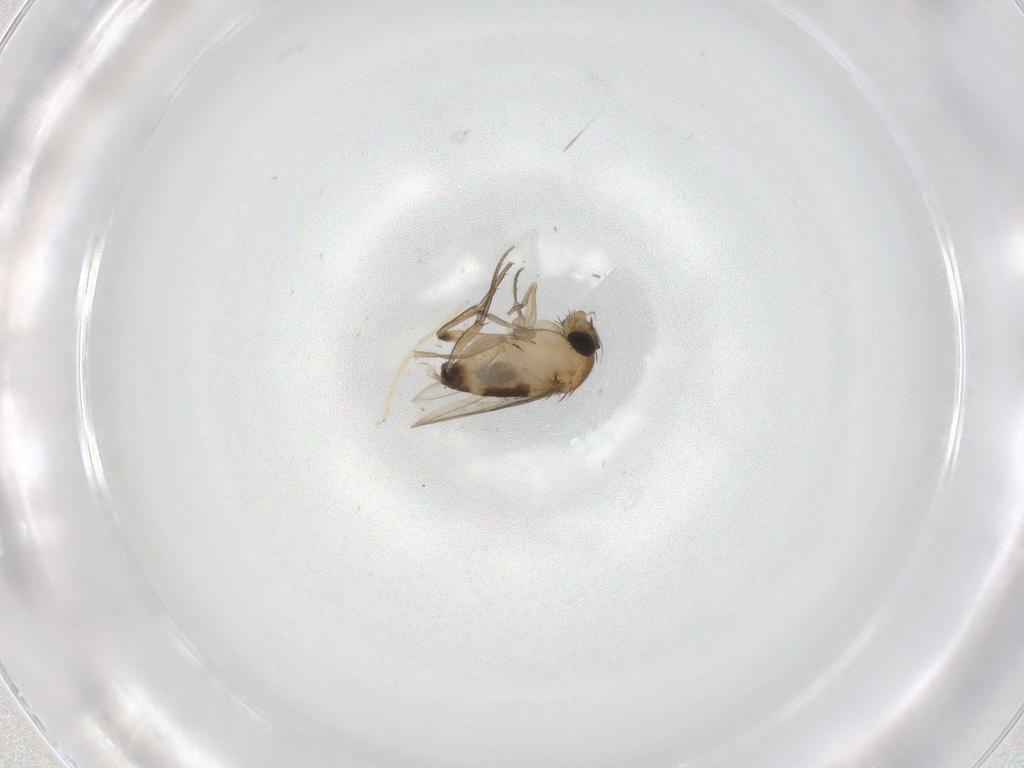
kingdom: Animalia
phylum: Arthropoda
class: Insecta
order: Diptera
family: Phoridae
